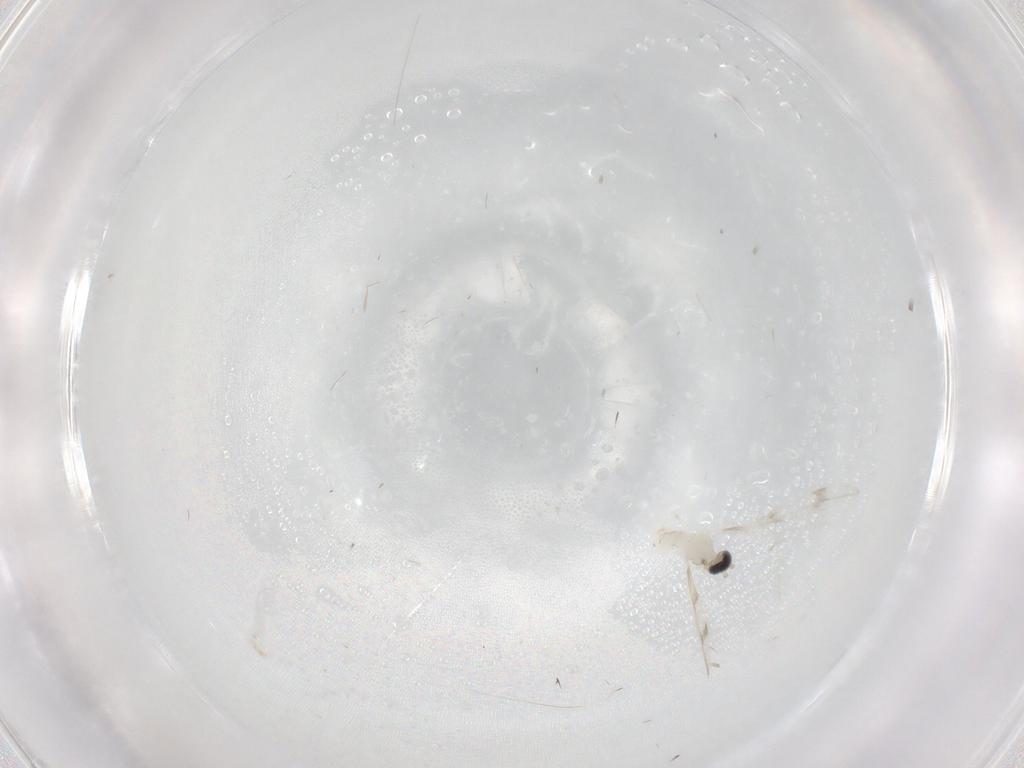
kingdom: Animalia
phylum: Arthropoda
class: Insecta
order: Diptera
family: Cecidomyiidae
